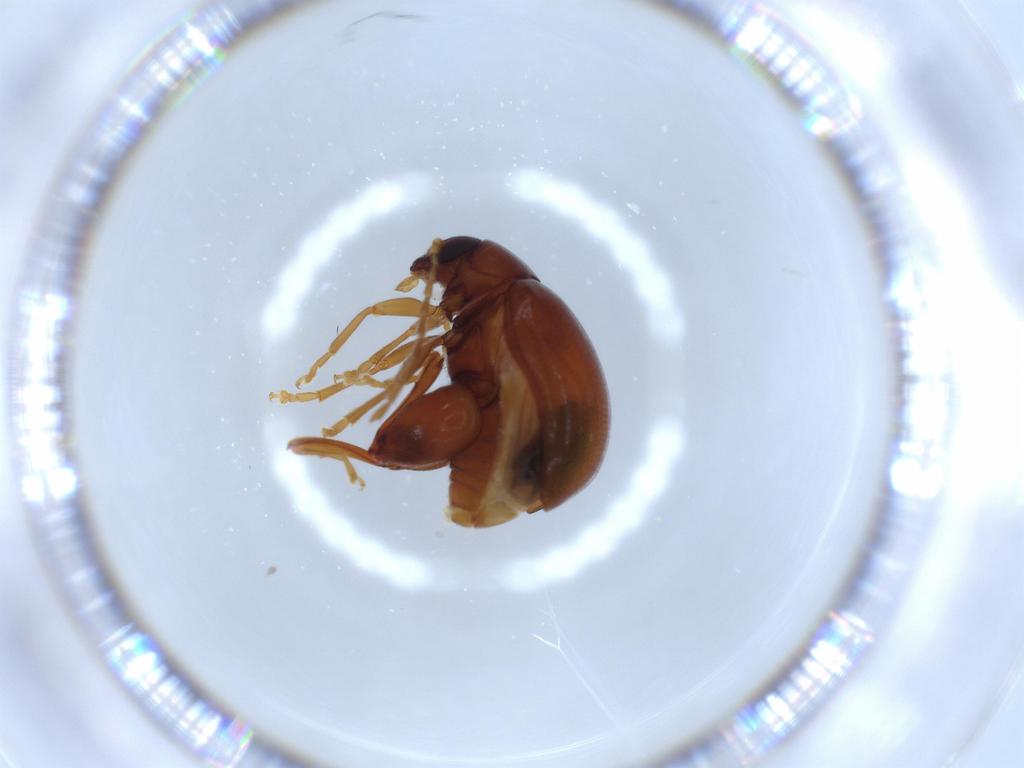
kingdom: Animalia
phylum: Arthropoda
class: Insecta
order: Coleoptera
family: Chrysomelidae
